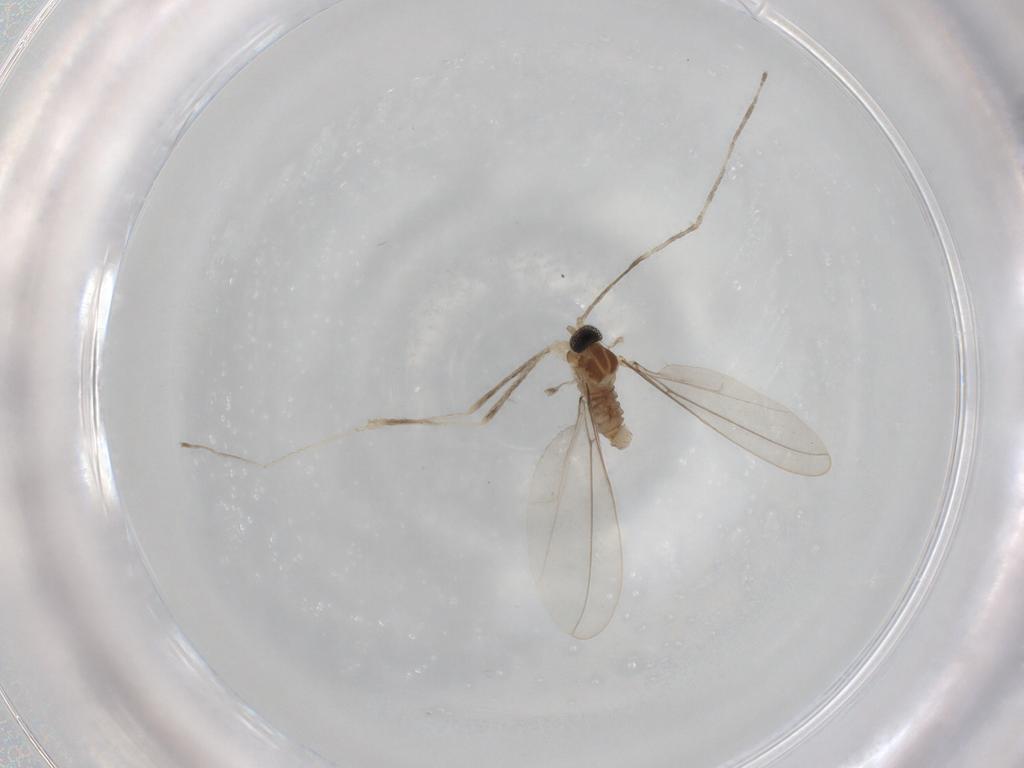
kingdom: Animalia
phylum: Arthropoda
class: Insecta
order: Diptera
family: Cecidomyiidae
